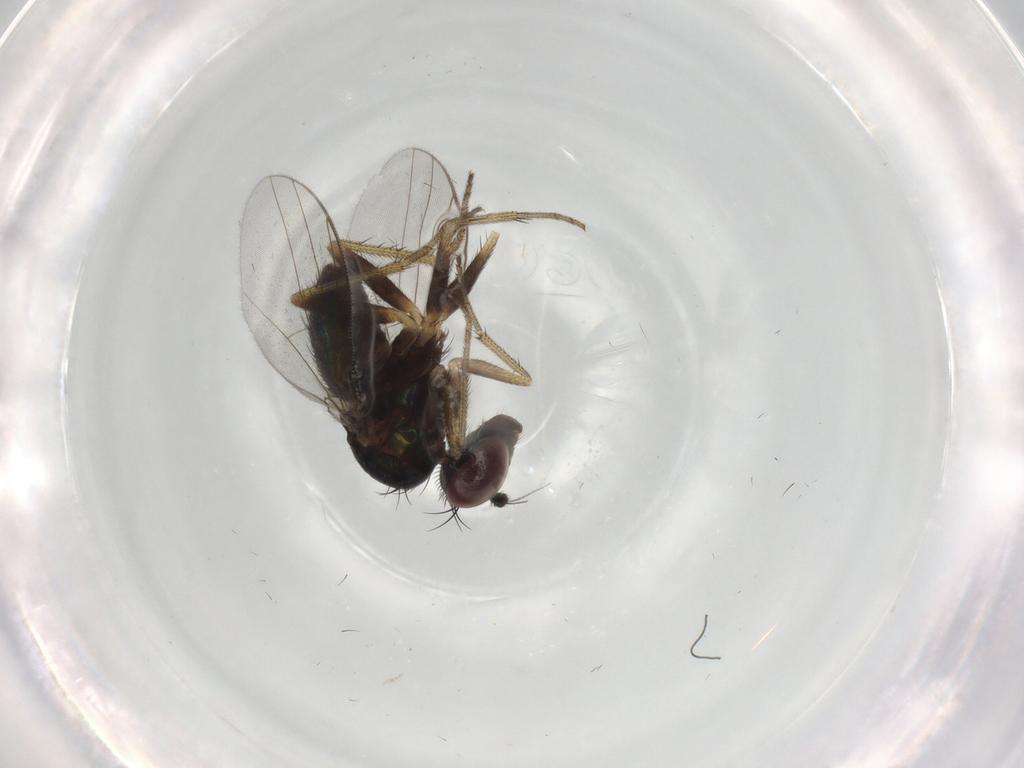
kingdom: Animalia
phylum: Arthropoda
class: Insecta
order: Diptera
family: Dolichopodidae
